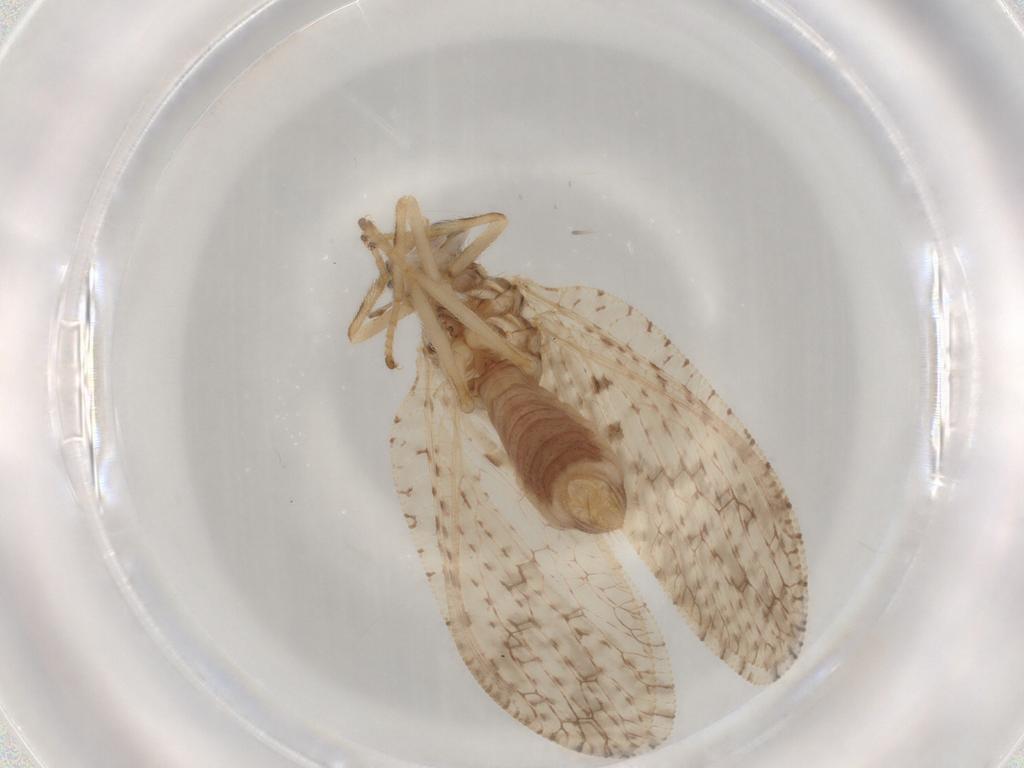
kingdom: Animalia
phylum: Arthropoda
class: Insecta
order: Neuroptera
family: Hemerobiidae
